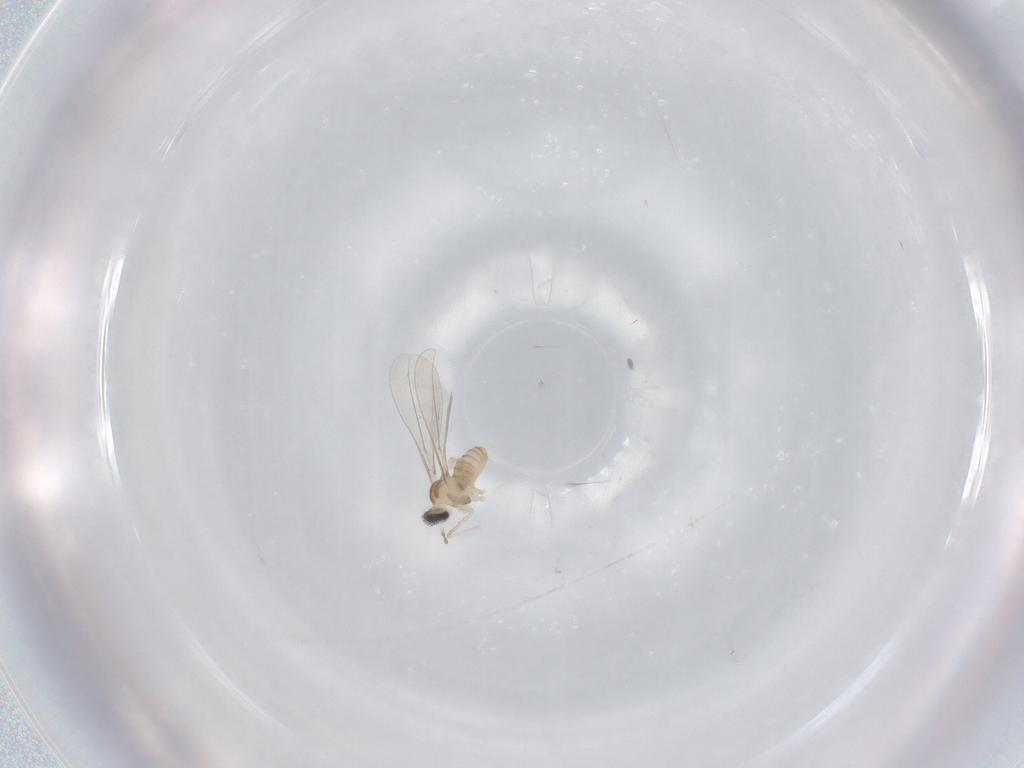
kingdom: Animalia
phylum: Arthropoda
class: Insecta
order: Diptera
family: Cecidomyiidae
